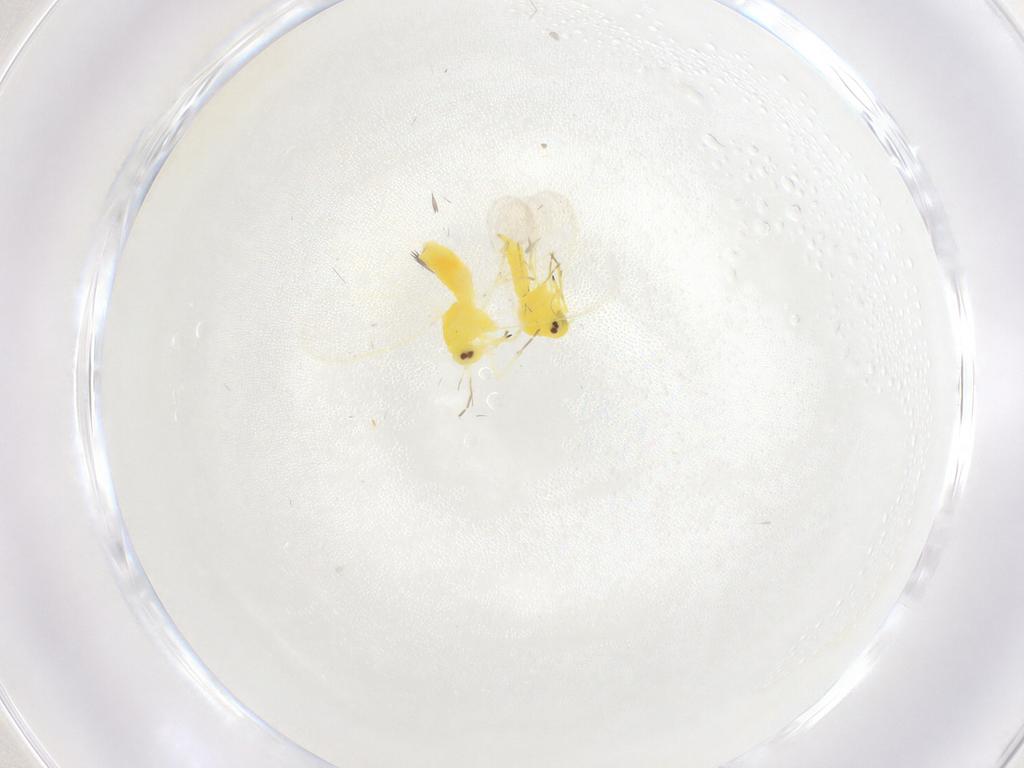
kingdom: Animalia
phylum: Arthropoda
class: Insecta
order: Hemiptera
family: Aleyrodidae
